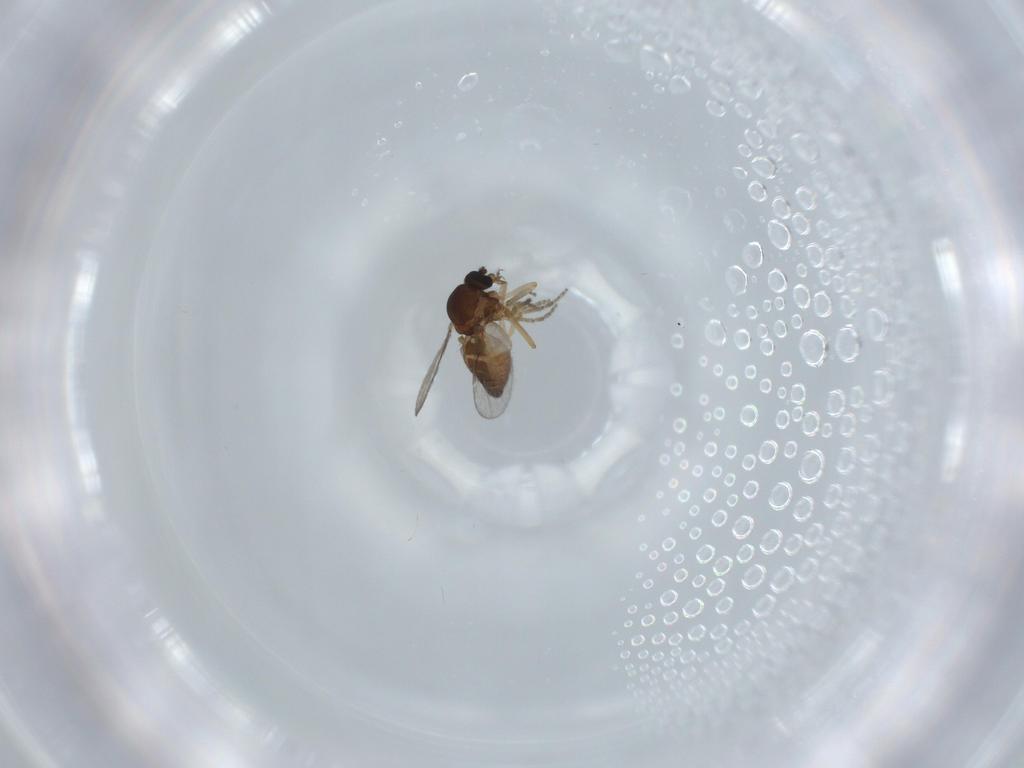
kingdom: Animalia
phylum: Arthropoda
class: Insecta
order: Diptera
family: Ceratopogonidae
